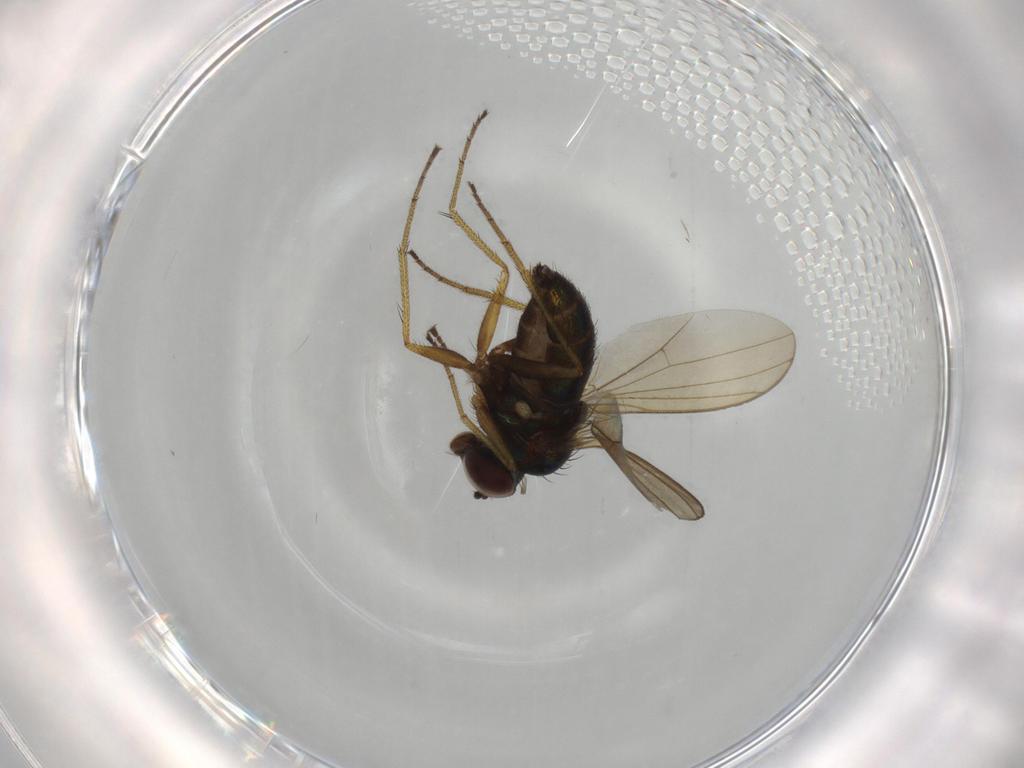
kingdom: Animalia
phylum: Arthropoda
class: Insecta
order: Diptera
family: Dolichopodidae
